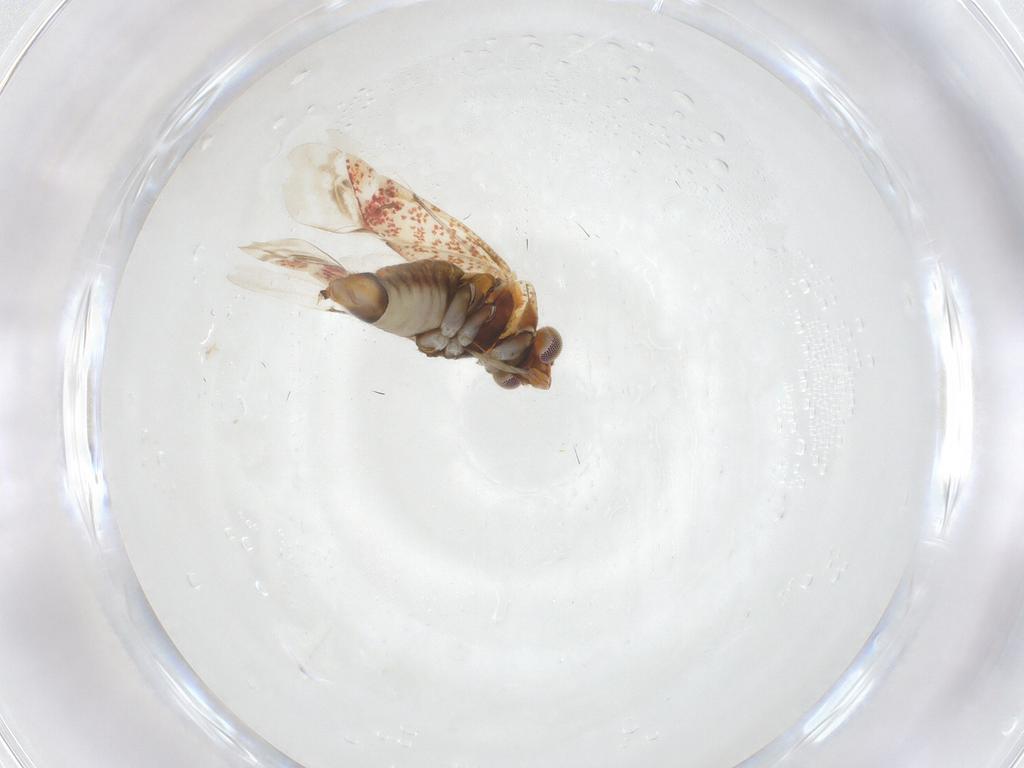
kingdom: Animalia
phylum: Arthropoda
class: Insecta
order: Hemiptera
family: Miridae
